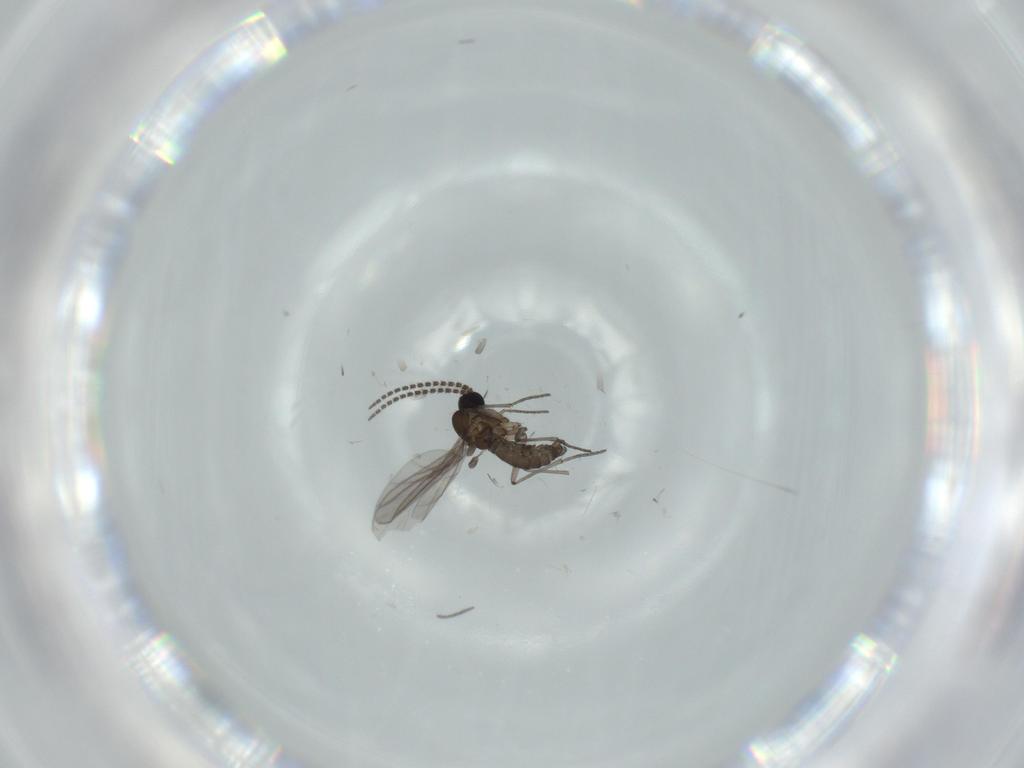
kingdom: Animalia
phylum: Arthropoda
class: Insecta
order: Diptera
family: Sciaridae
